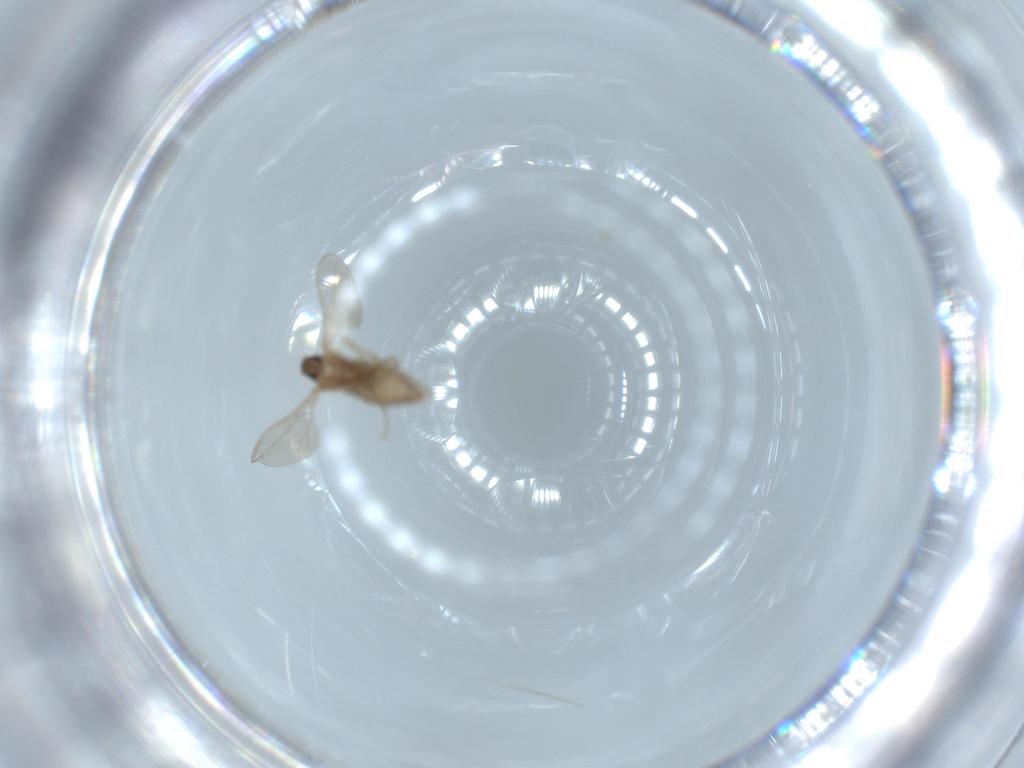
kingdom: Animalia
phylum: Arthropoda
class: Insecta
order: Diptera
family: Cecidomyiidae
